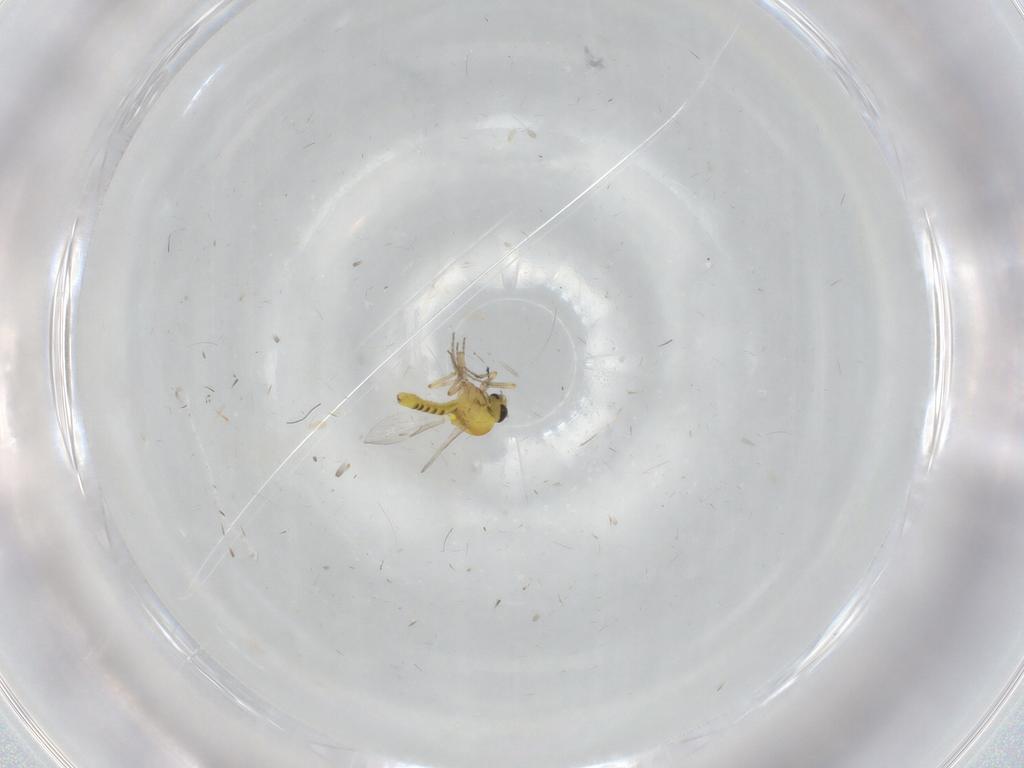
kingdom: Animalia
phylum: Arthropoda
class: Insecta
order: Diptera
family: Ceratopogonidae
